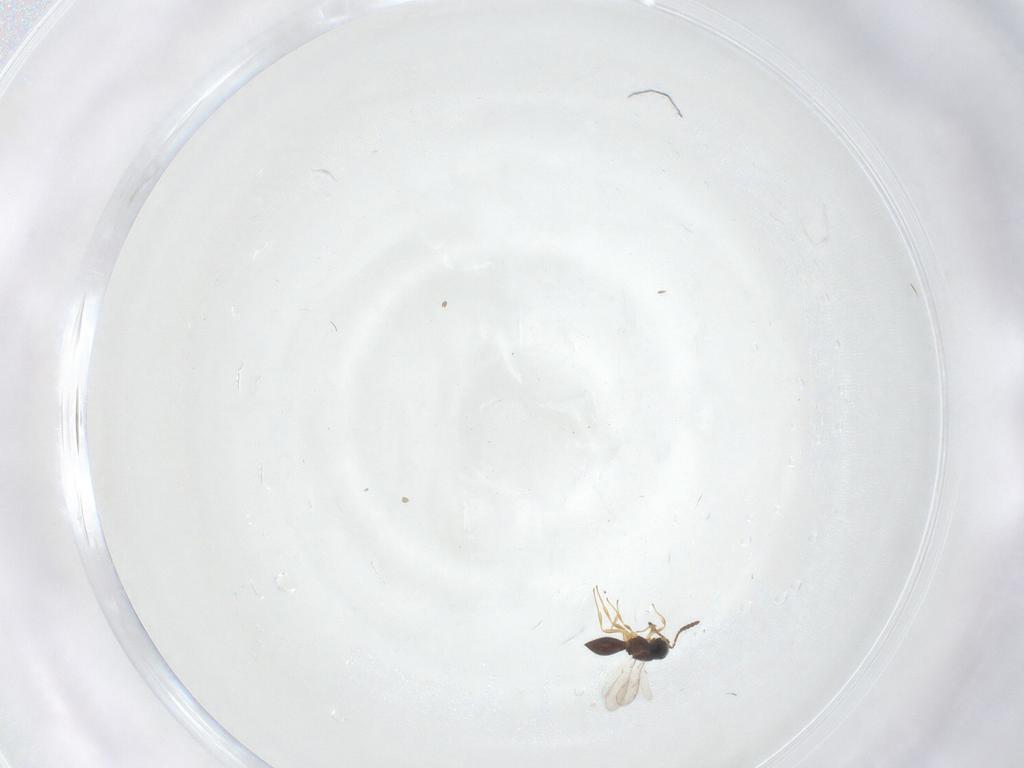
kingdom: Animalia
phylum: Arthropoda
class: Insecta
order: Hymenoptera
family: Scelionidae
